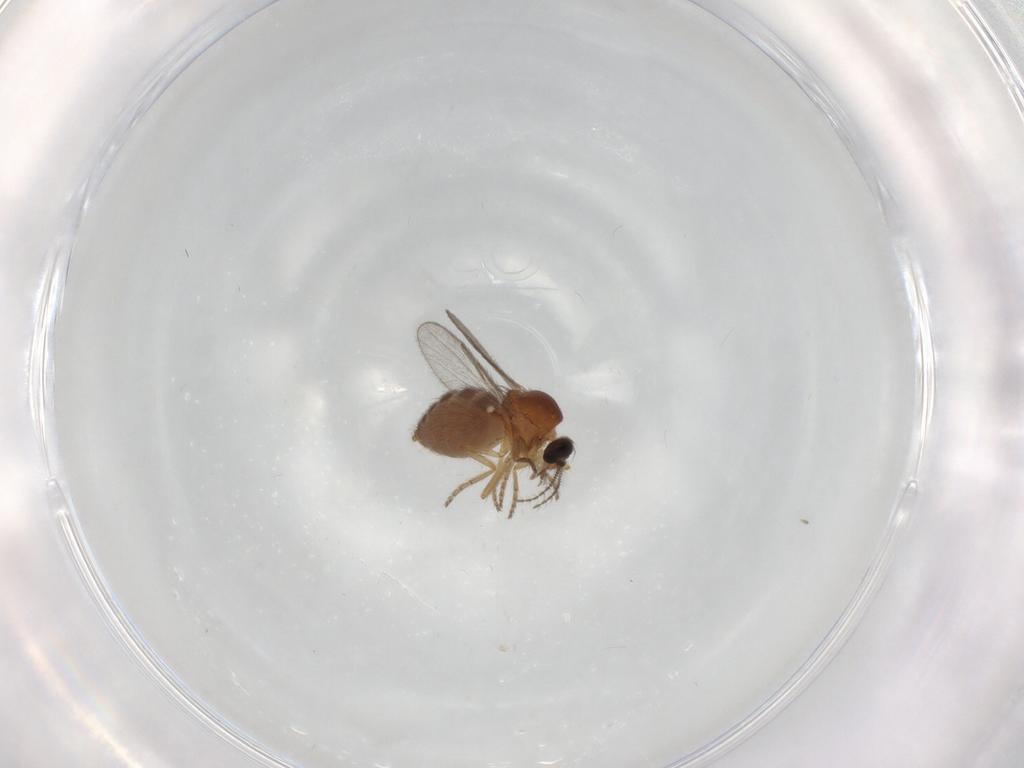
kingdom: Animalia
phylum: Arthropoda
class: Insecta
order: Diptera
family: Ceratopogonidae
